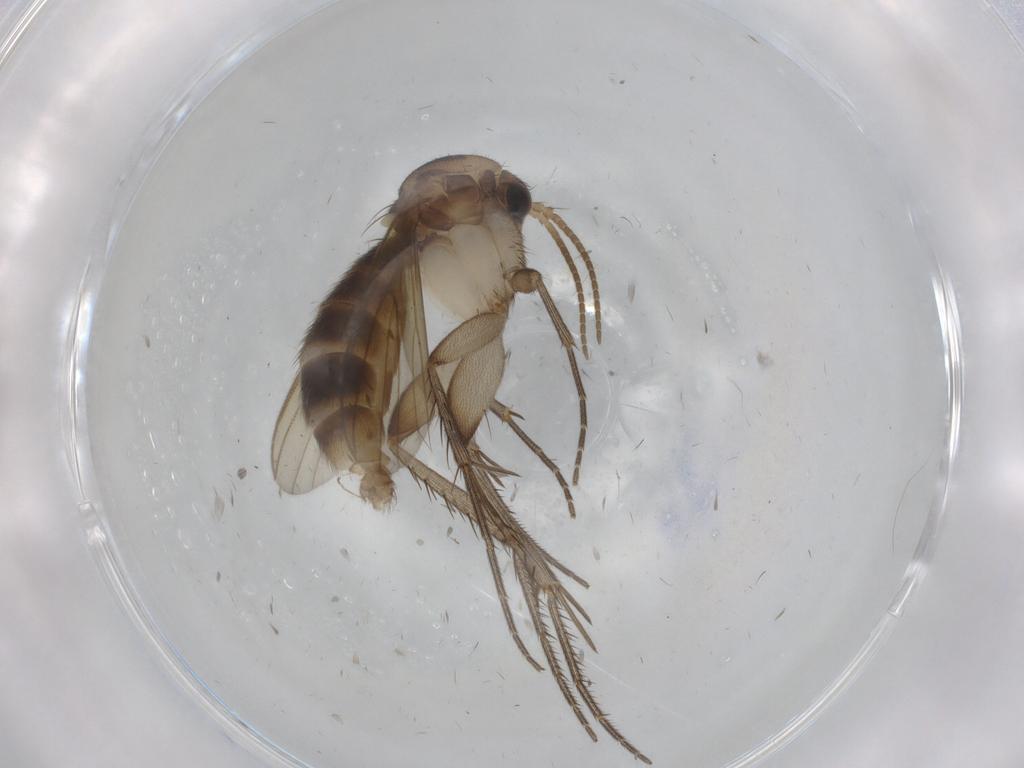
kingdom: Animalia
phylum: Arthropoda
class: Insecta
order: Diptera
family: Mycetophilidae
